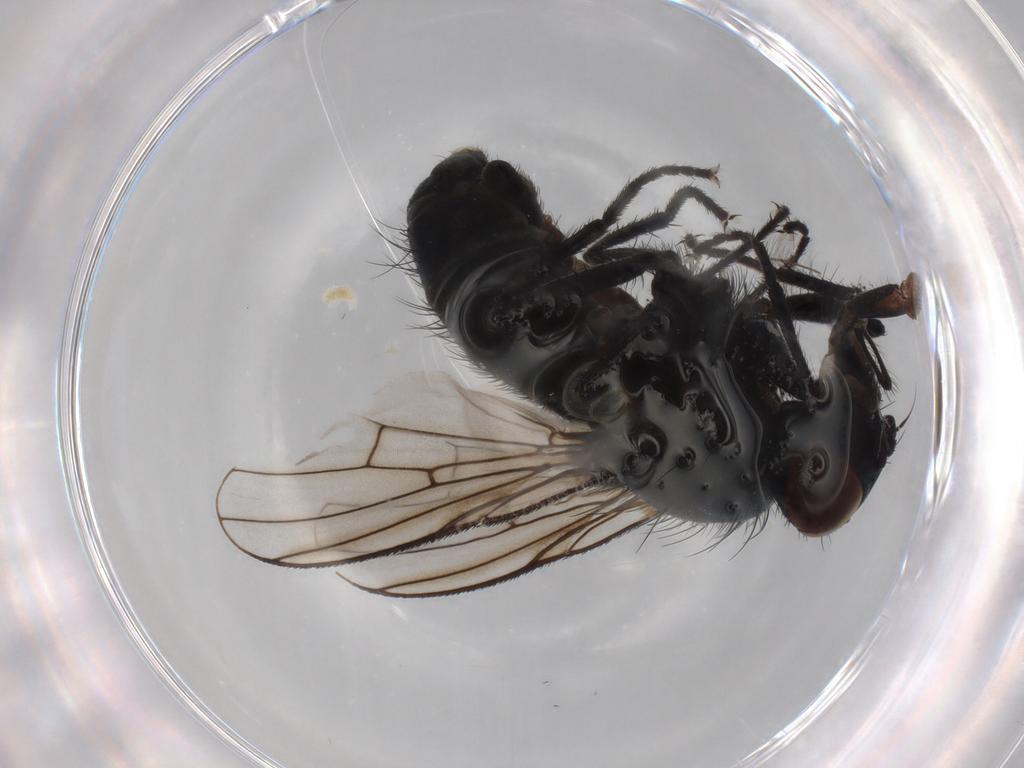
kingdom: Animalia
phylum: Arthropoda
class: Insecta
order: Diptera
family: Muscidae
